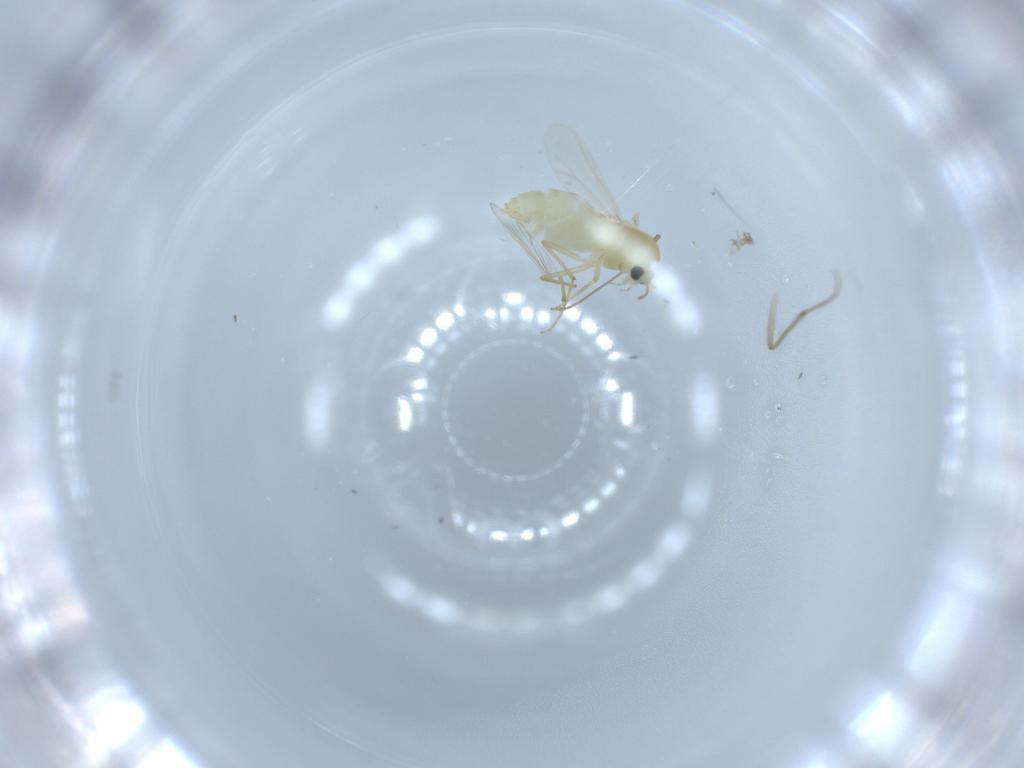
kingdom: Animalia
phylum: Arthropoda
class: Insecta
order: Diptera
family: Chironomidae
